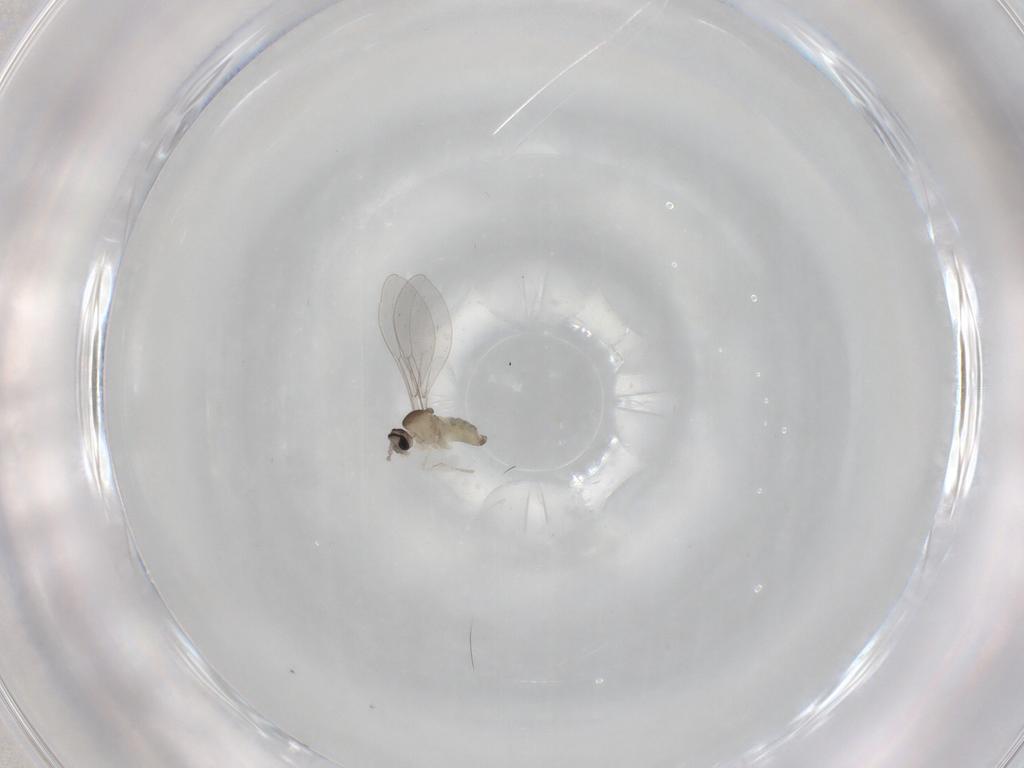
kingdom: Animalia
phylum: Arthropoda
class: Insecta
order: Diptera
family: Cecidomyiidae
